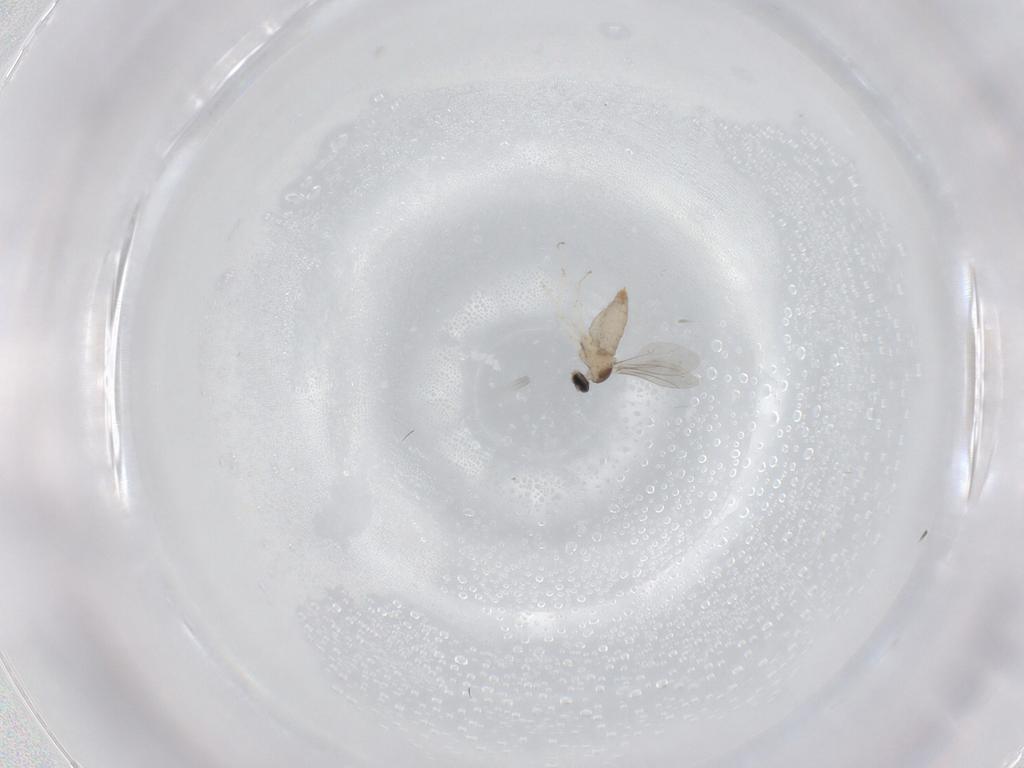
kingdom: Animalia
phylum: Arthropoda
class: Insecta
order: Diptera
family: Cecidomyiidae
